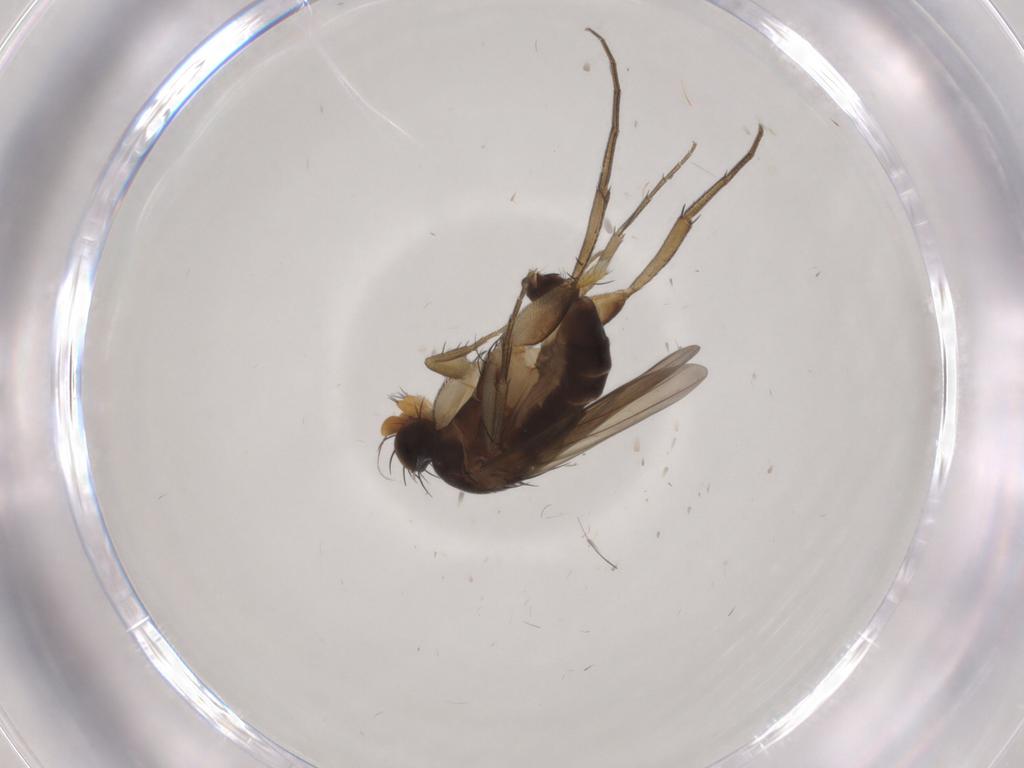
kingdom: Animalia
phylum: Arthropoda
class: Insecta
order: Diptera
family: Phoridae
